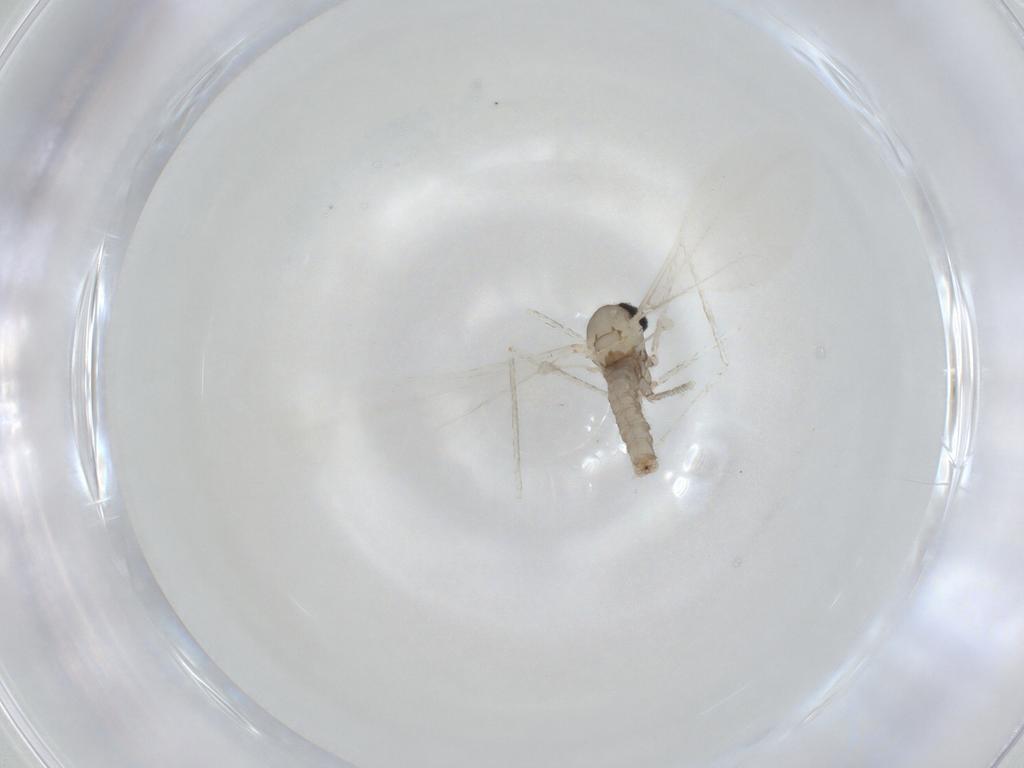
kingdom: Animalia
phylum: Arthropoda
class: Insecta
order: Diptera
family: Cecidomyiidae
